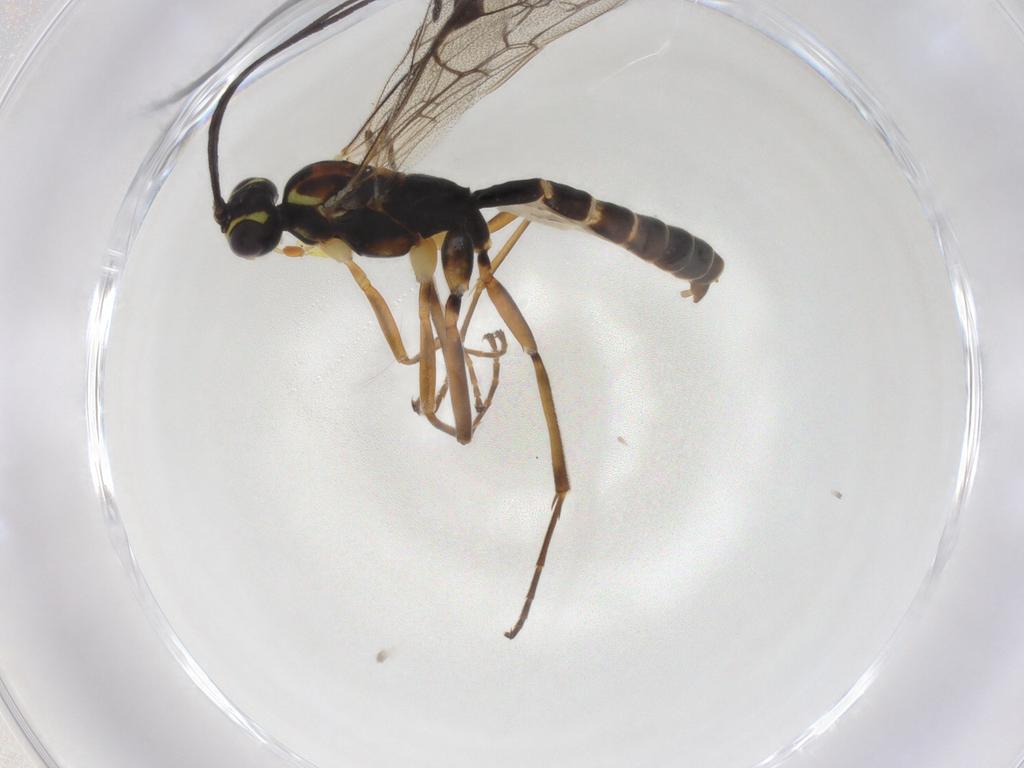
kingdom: Animalia
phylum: Arthropoda
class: Insecta
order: Hymenoptera
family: Ichneumonidae
